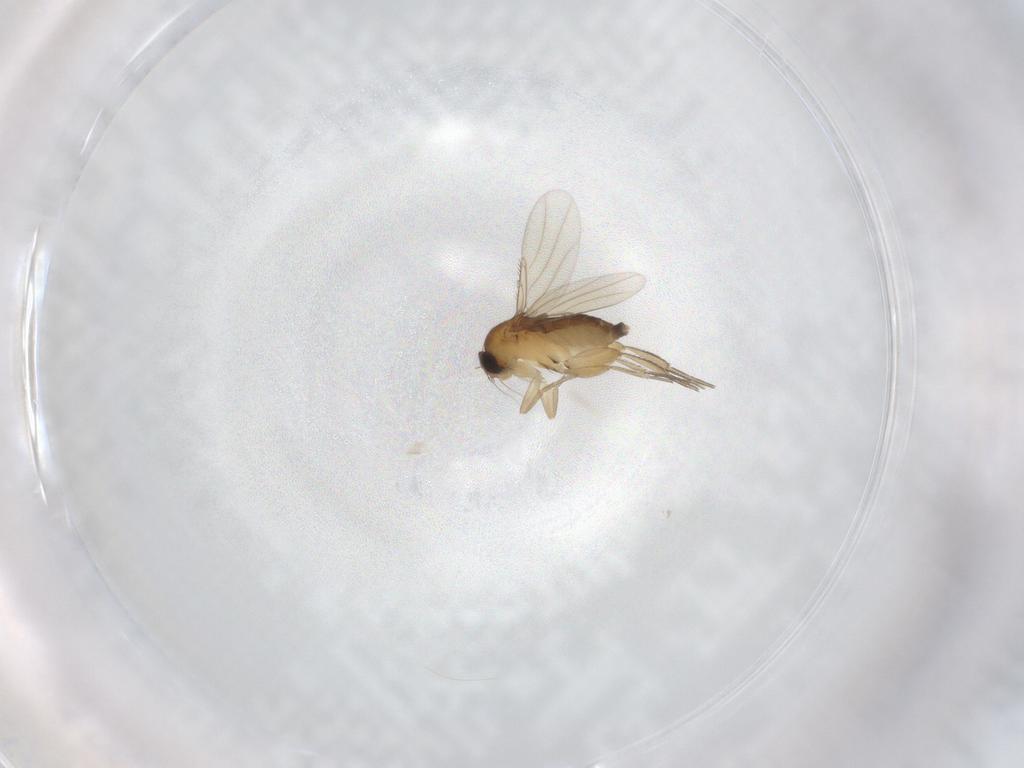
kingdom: Animalia
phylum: Arthropoda
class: Insecta
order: Diptera
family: Phoridae
